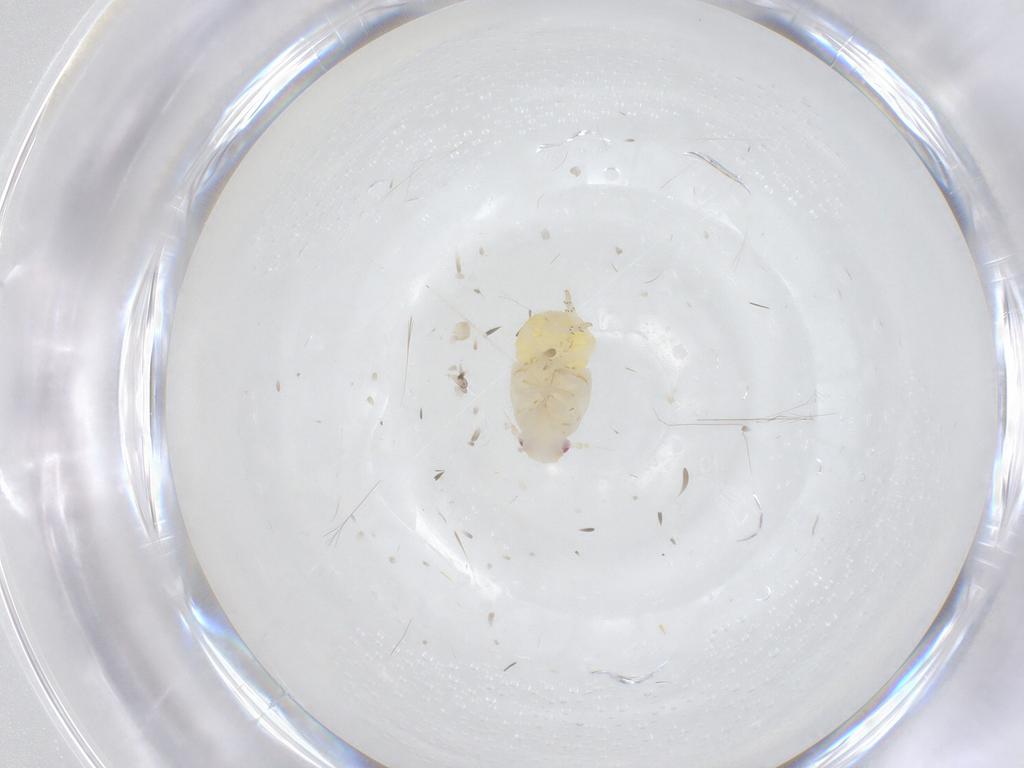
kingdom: Animalia
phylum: Arthropoda
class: Insecta
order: Hemiptera
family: Fulgoroidea_incertae_sedis
